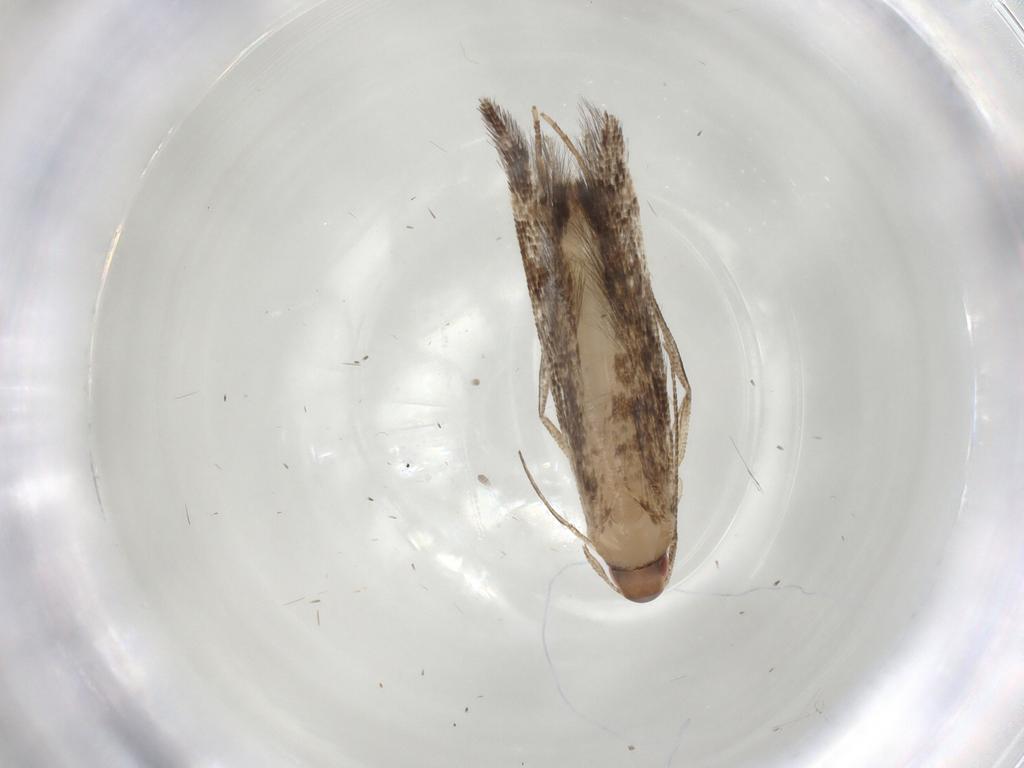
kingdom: Animalia
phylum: Arthropoda
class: Insecta
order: Lepidoptera
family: Cosmopterigidae
